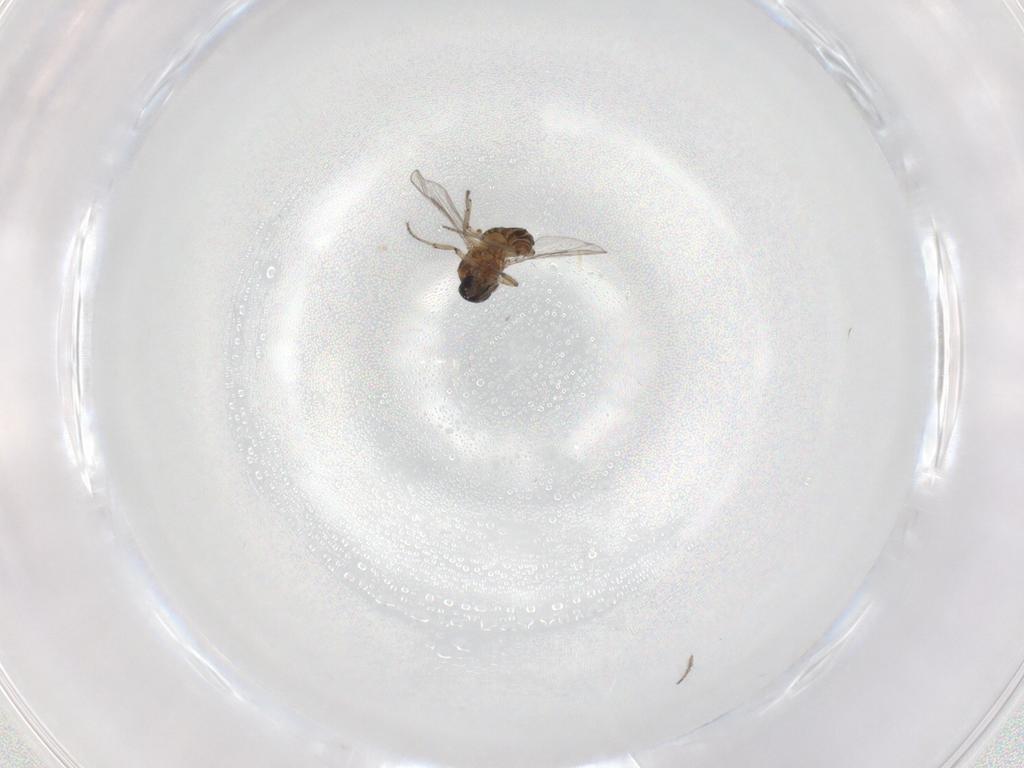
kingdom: Animalia
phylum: Arthropoda
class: Insecta
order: Diptera
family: Ceratopogonidae
